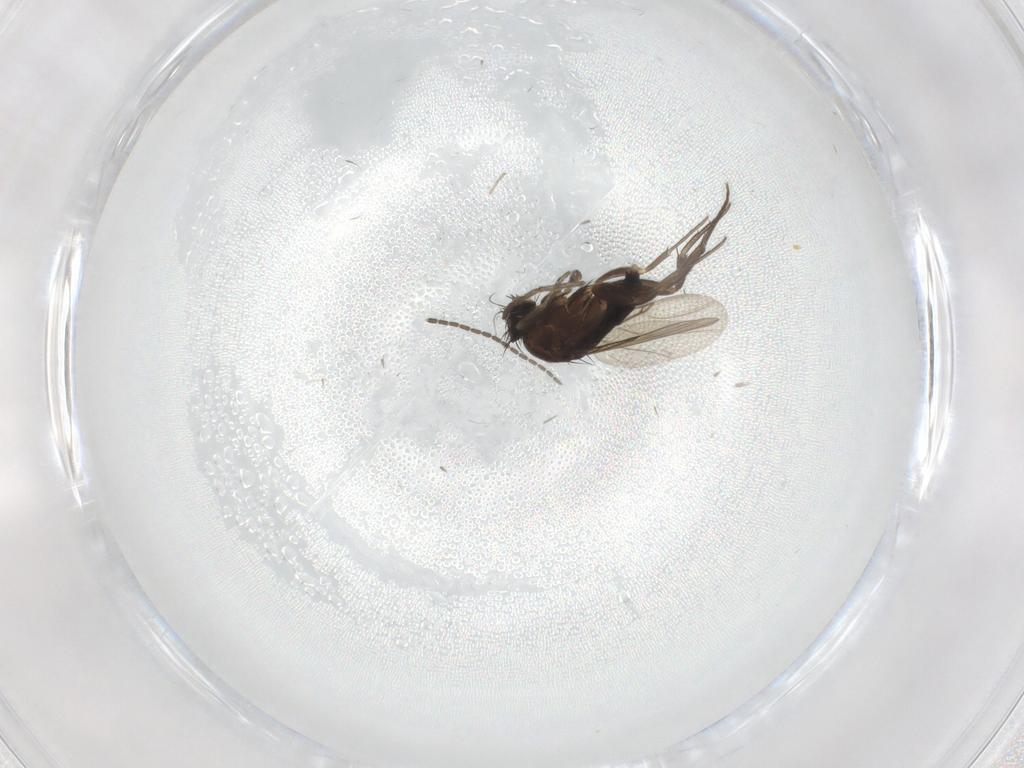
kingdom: Animalia
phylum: Arthropoda
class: Insecta
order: Diptera
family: Phoridae
